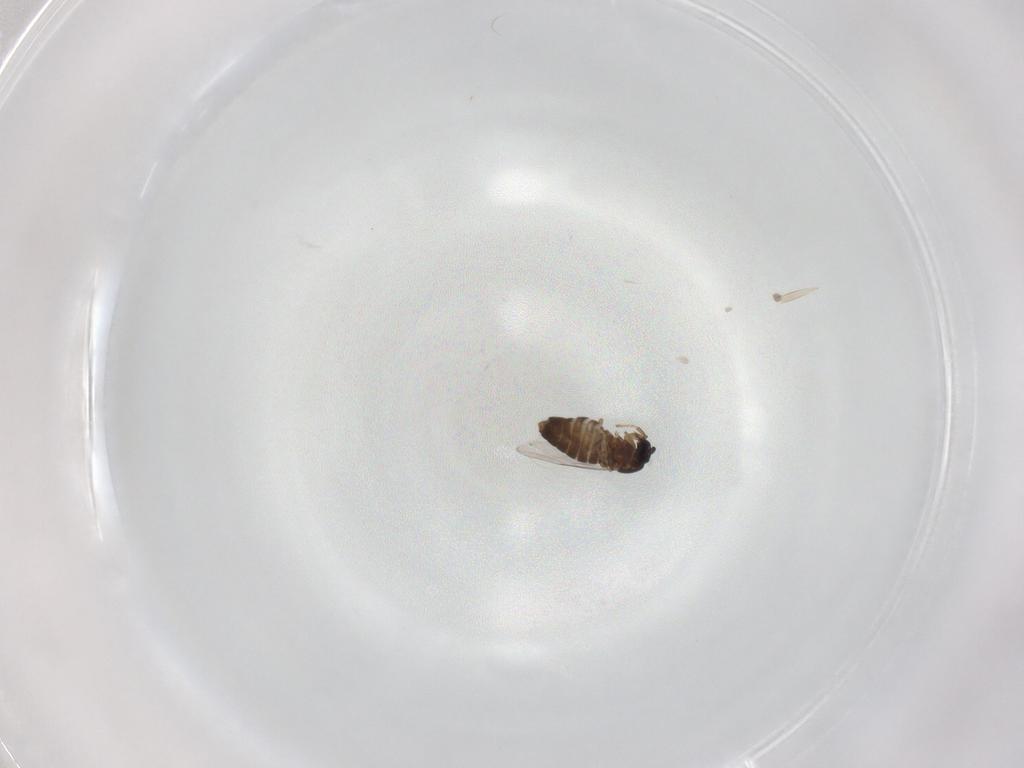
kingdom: Animalia
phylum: Arthropoda
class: Insecta
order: Diptera
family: Scatopsidae
